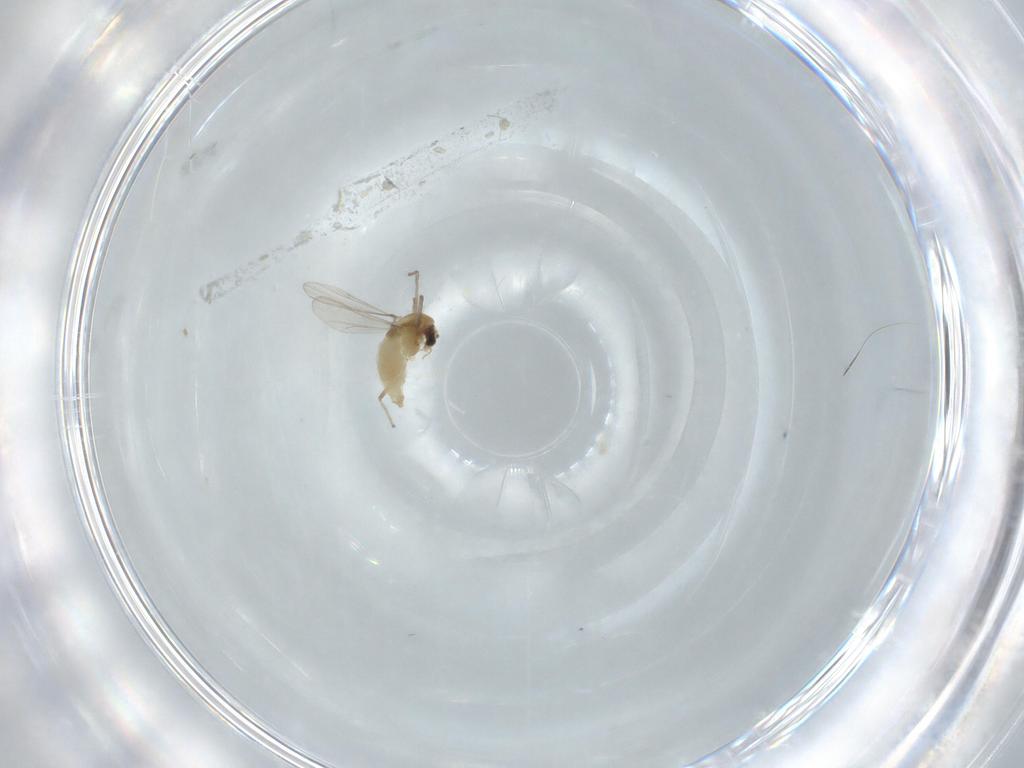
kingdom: Animalia
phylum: Arthropoda
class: Insecta
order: Diptera
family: Chironomidae
